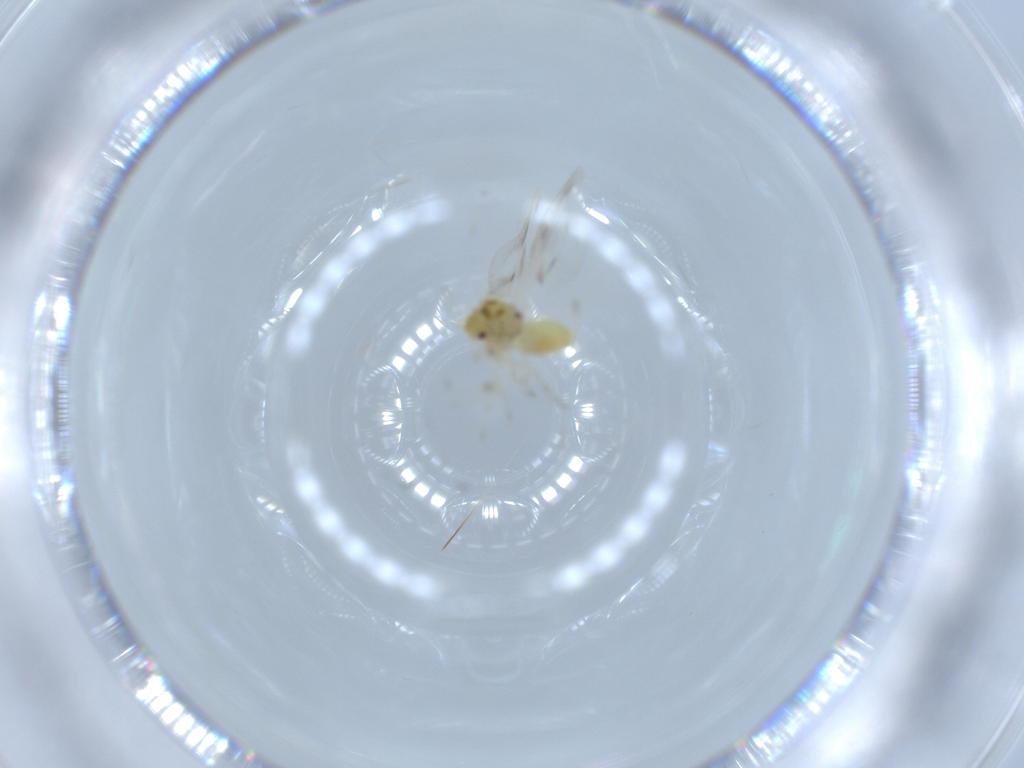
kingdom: Animalia
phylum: Arthropoda
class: Insecta
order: Hemiptera
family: Aleyrodidae
